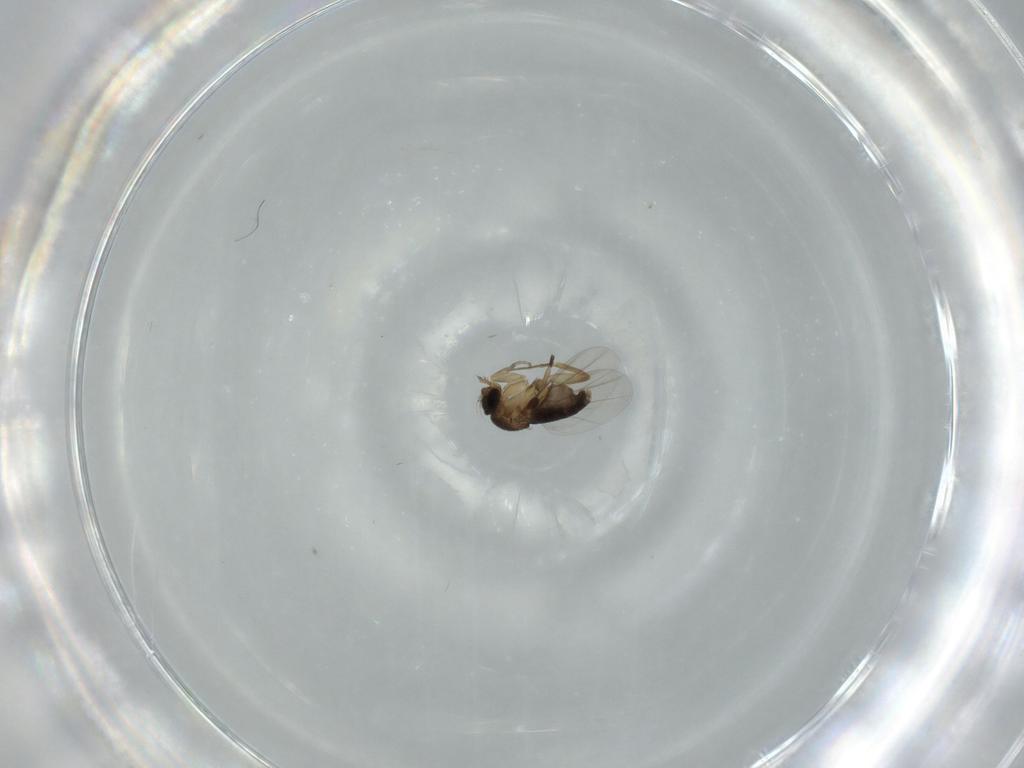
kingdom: Animalia
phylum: Arthropoda
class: Insecta
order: Diptera
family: Phoridae
